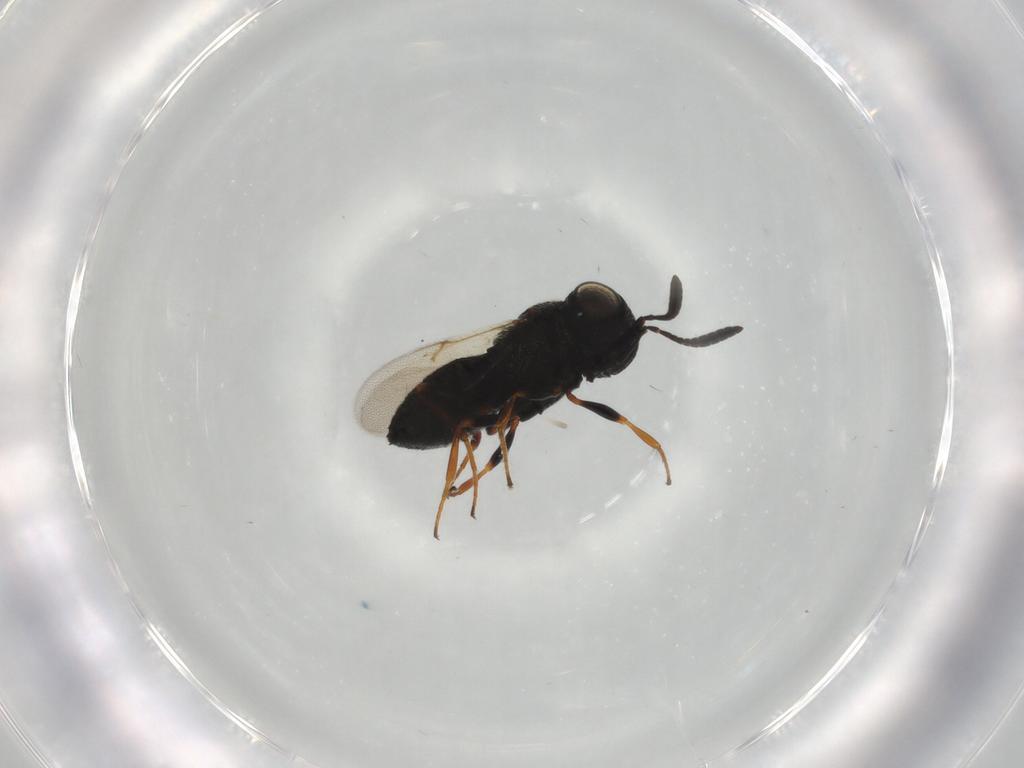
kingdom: Animalia
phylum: Arthropoda
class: Insecta
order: Hymenoptera
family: Scelionidae
